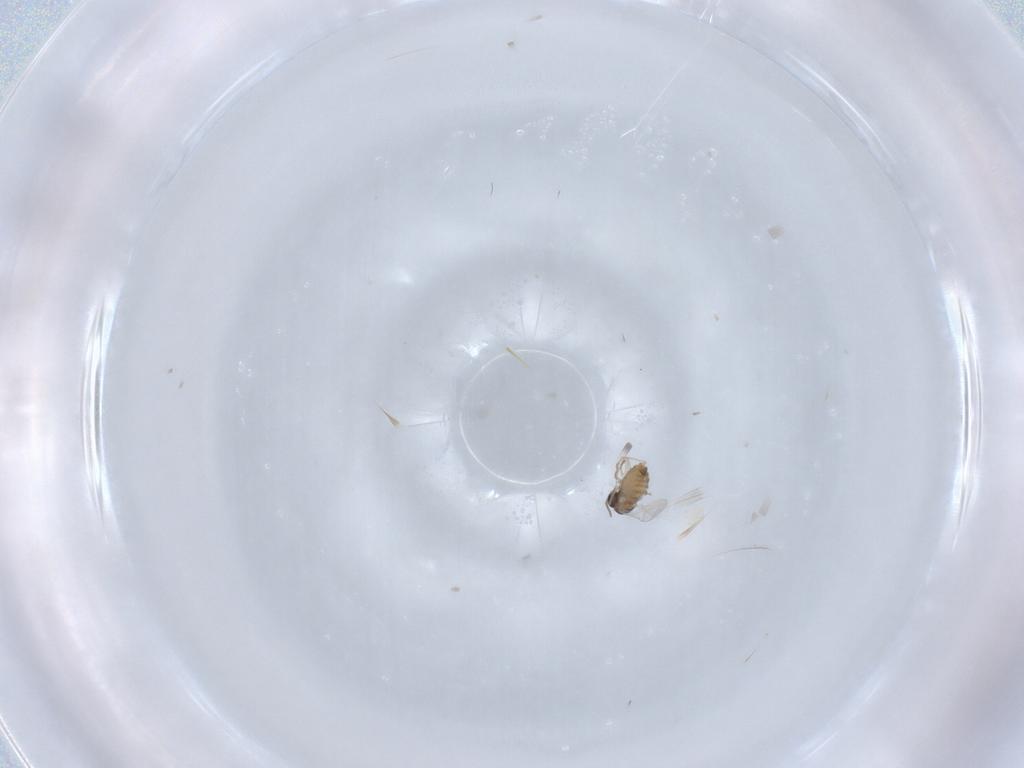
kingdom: Animalia
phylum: Arthropoda
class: Insecta
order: Diptera
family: Cecidomyiidae
